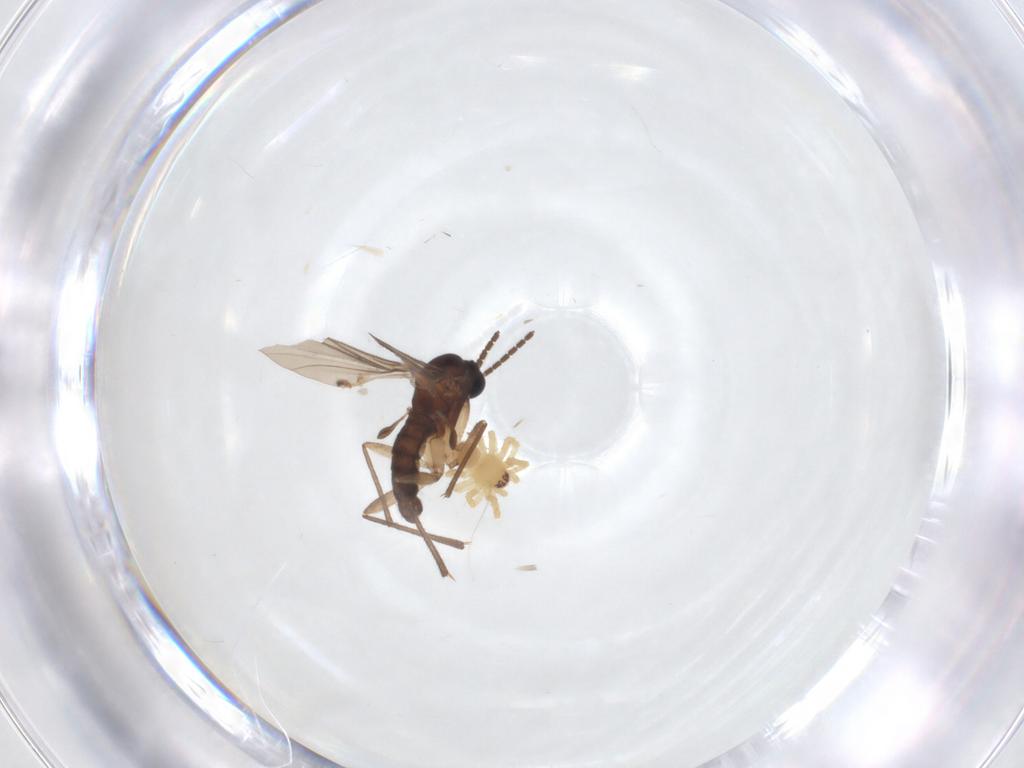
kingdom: Animalia
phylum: Arthropoda
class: Insecta
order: Diptera
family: Sciaridae
